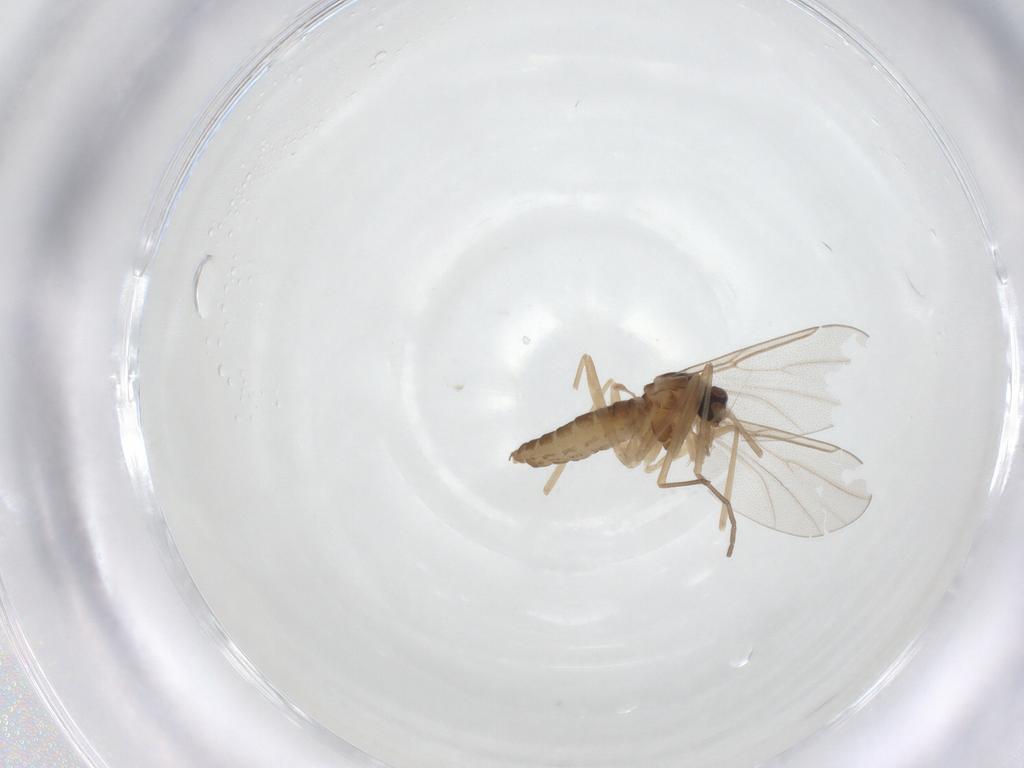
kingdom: Animalia
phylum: Arthropoda
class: Insecta
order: Diptera
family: Cecidomyiidae
